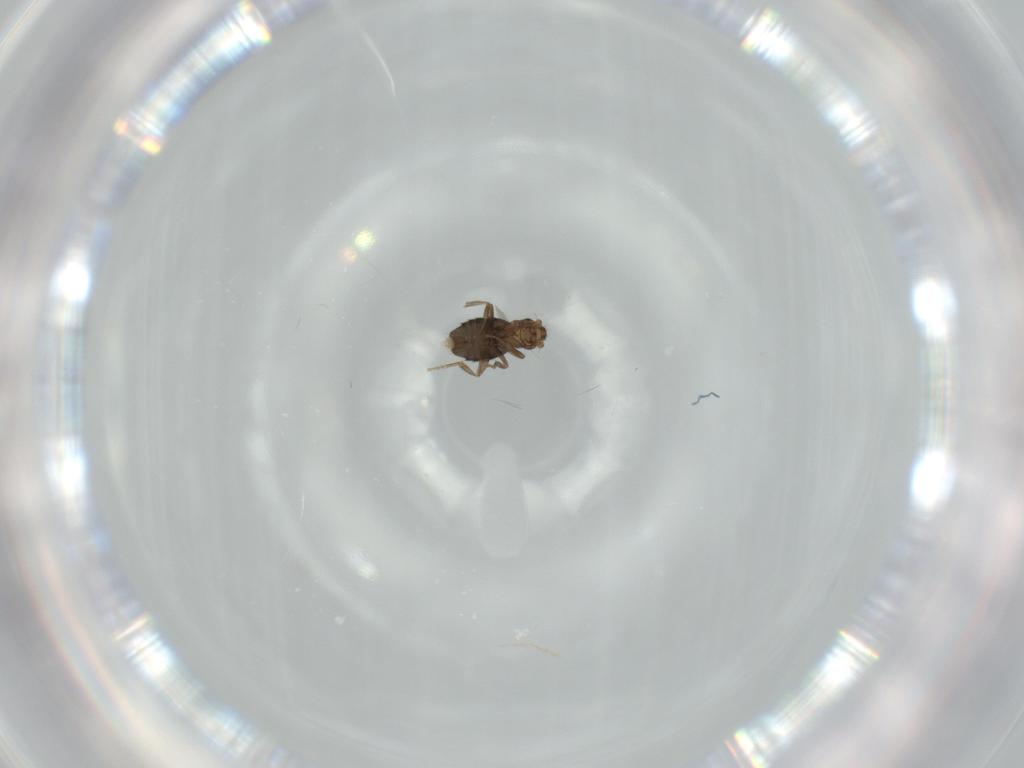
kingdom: Animalia
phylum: Arthropoda
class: Insecta
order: Diptera
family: Phoridae
